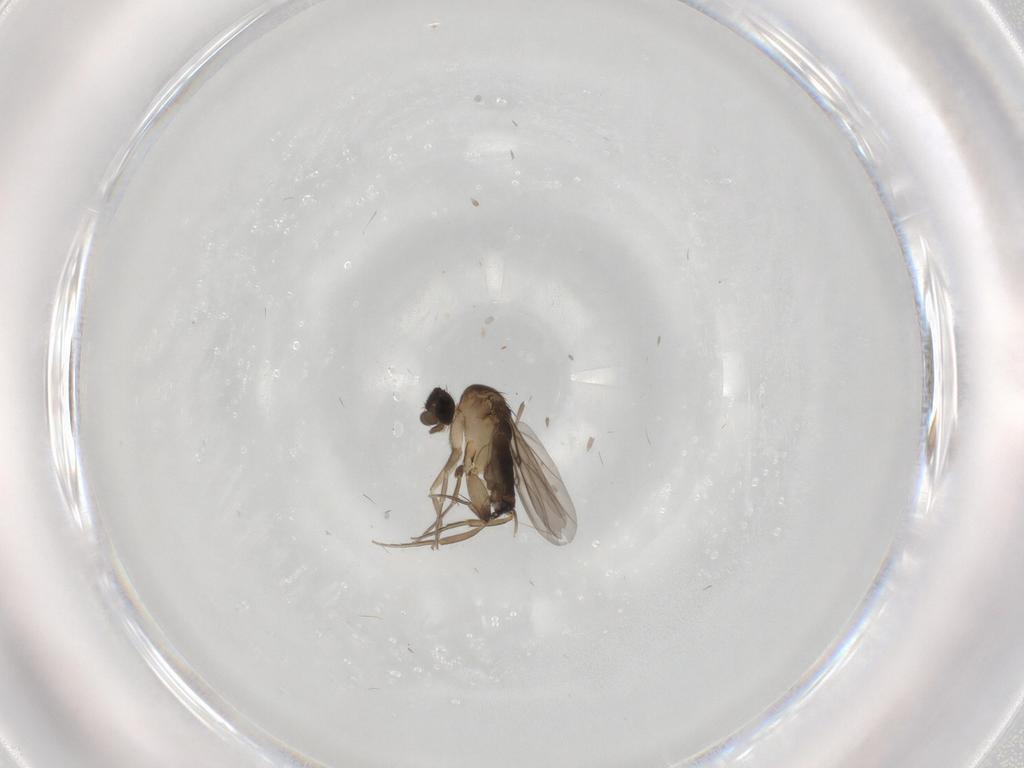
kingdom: Animalia
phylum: Arthropoda
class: Insecta
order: Diptera
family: Phoridae
